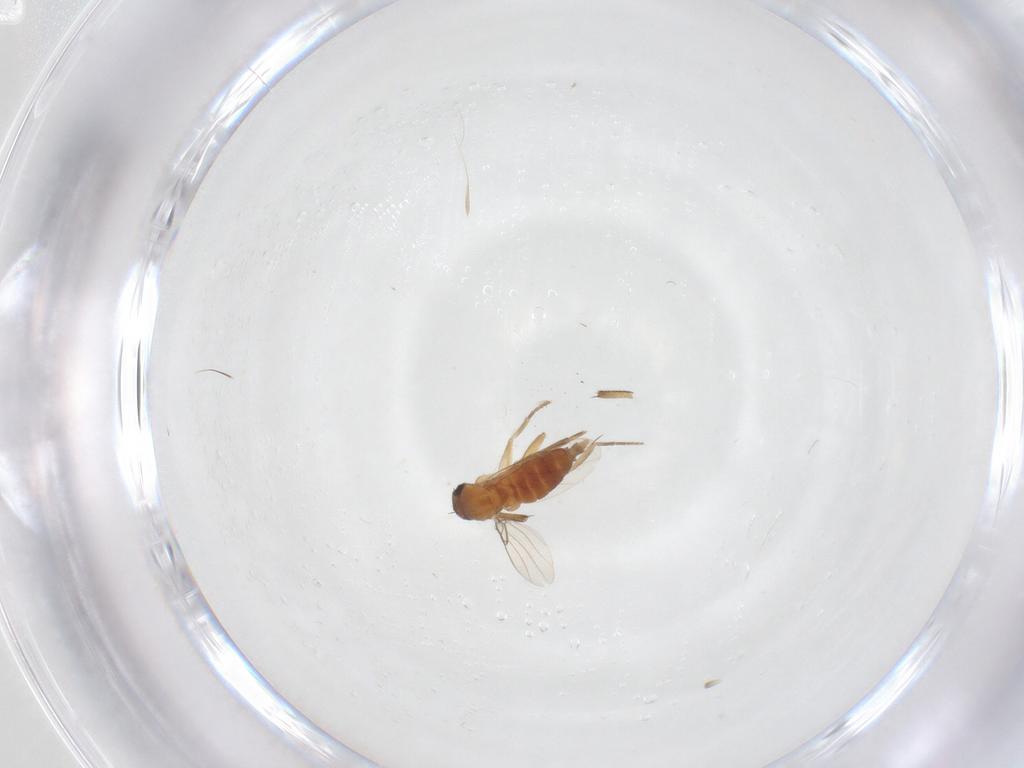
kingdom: Animalia
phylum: Arthropoda
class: Insecta
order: Diptera
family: Phoridae
